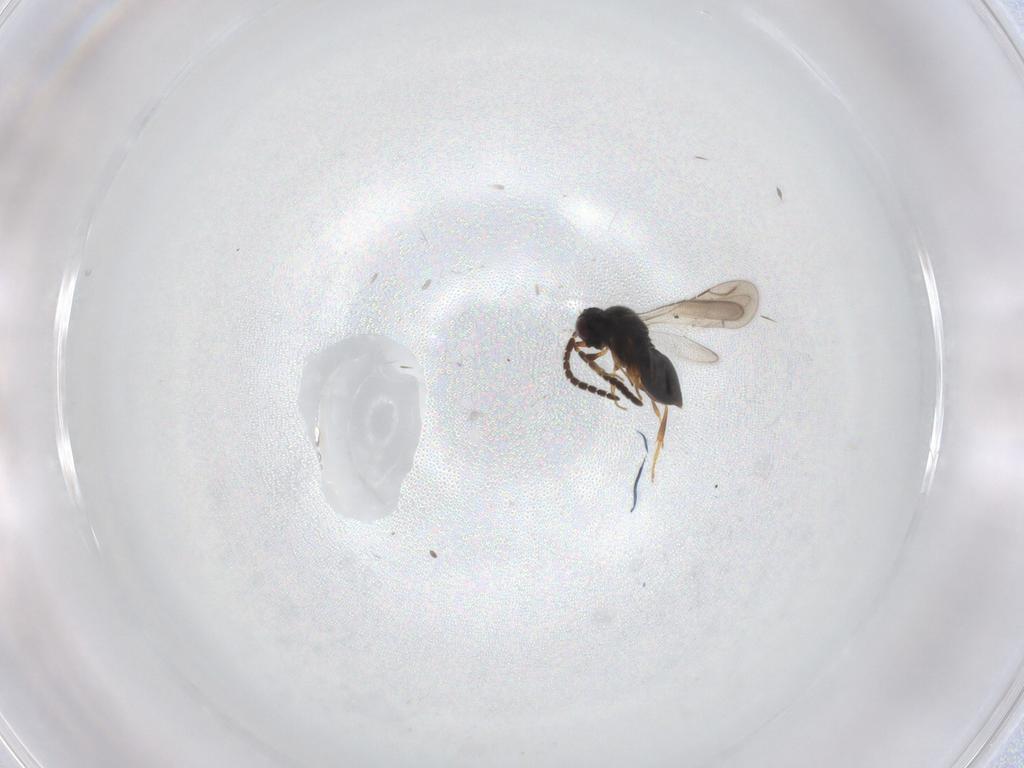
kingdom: Animalia
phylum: Arthropoda
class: Insecta
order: Hymenoptera
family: Ceraphronidae
